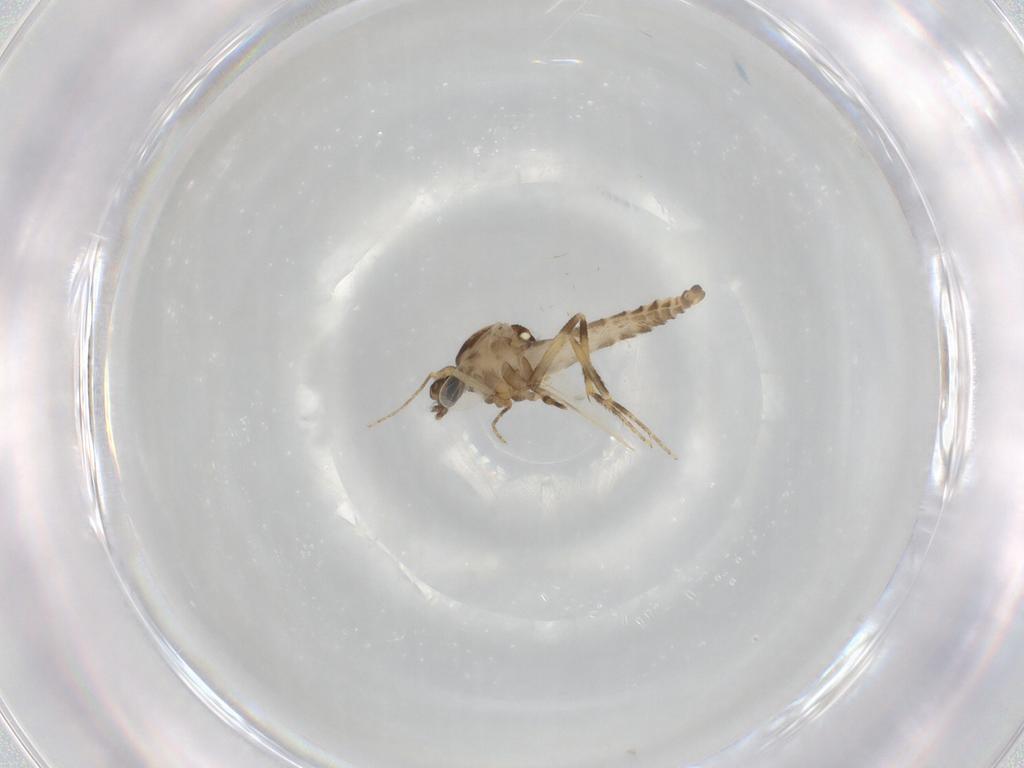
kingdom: Animalia
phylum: Arthropoda
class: Insecta
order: Diptera
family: Ceratopogonidae
